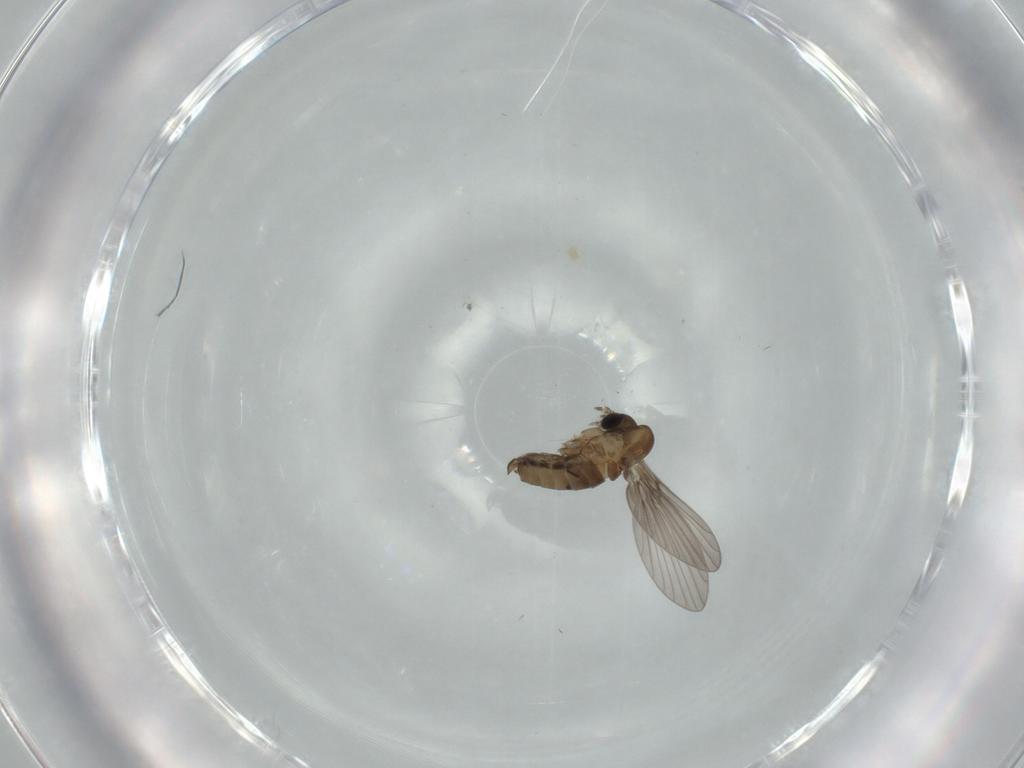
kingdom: Animalia
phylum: Arthropoda
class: Insecta
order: Diptera
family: Psychodidae
